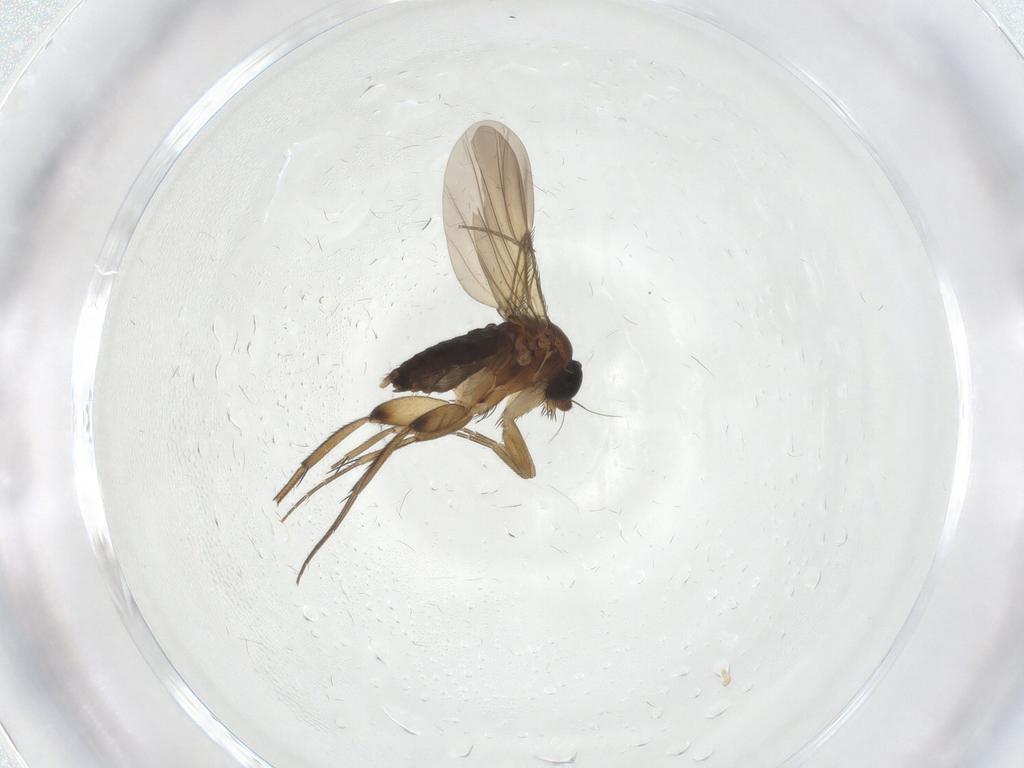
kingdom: Animalia
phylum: Arthropoda
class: Insecta
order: Diptera
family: Phoridae
